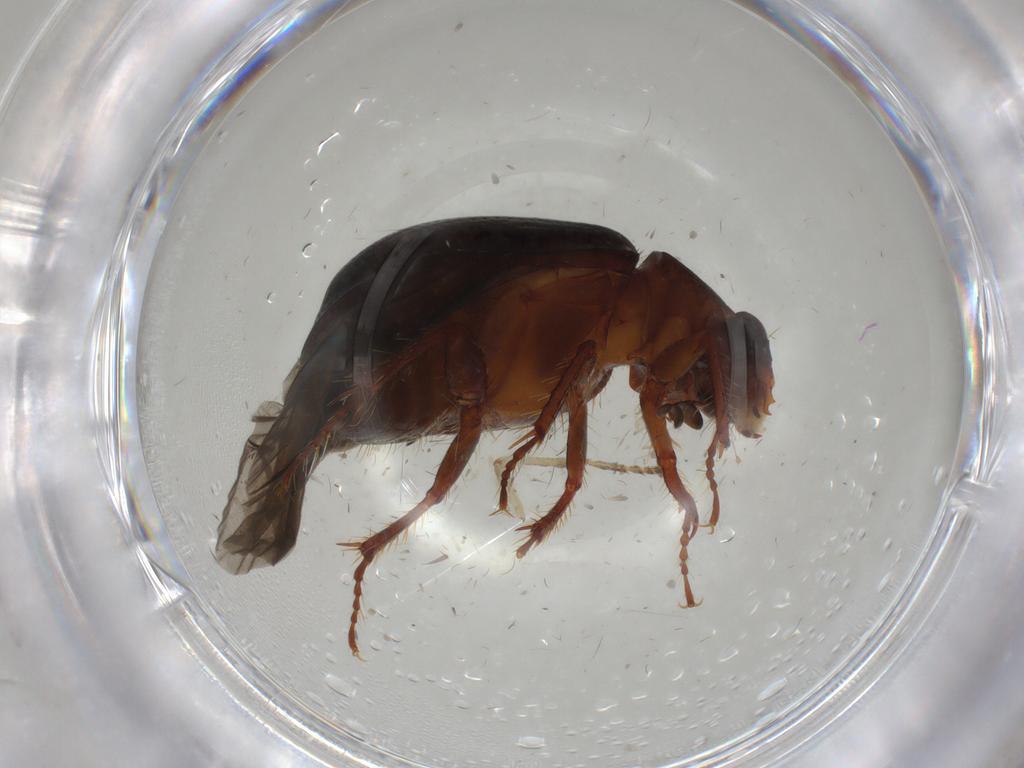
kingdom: Animalia
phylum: Arthropoda
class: Insecta
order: Coleoptera
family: Hybosoridae
